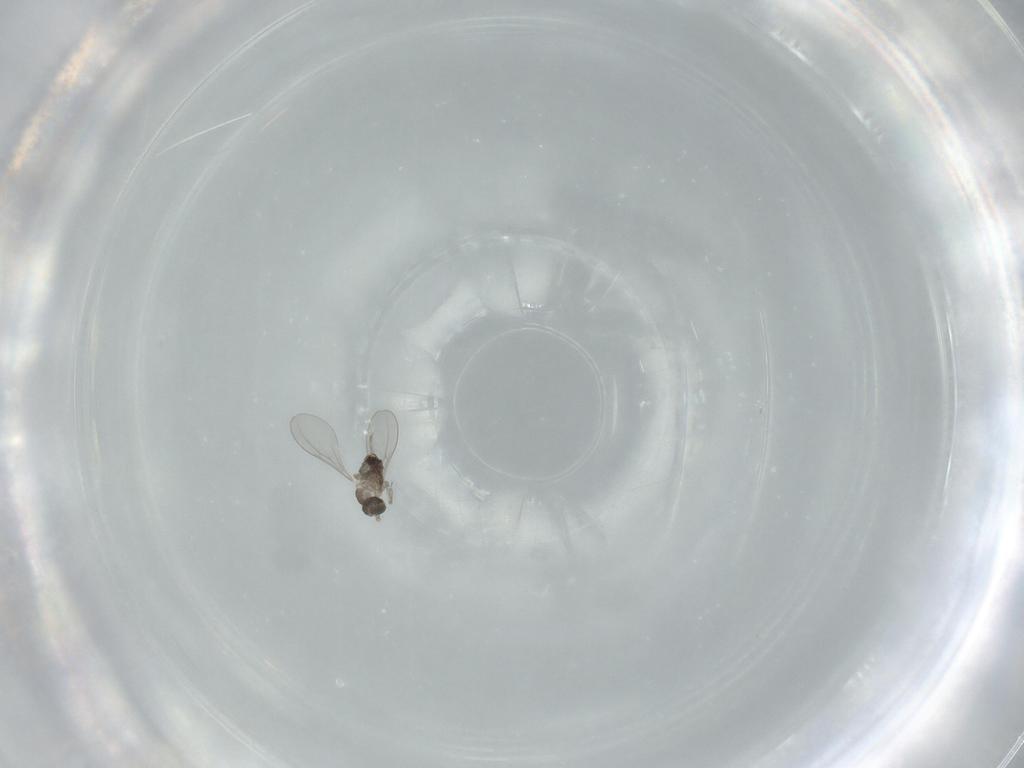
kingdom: Animalia
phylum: Arthropoda
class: Insecta
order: Diptera
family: Cecidomyiidae
